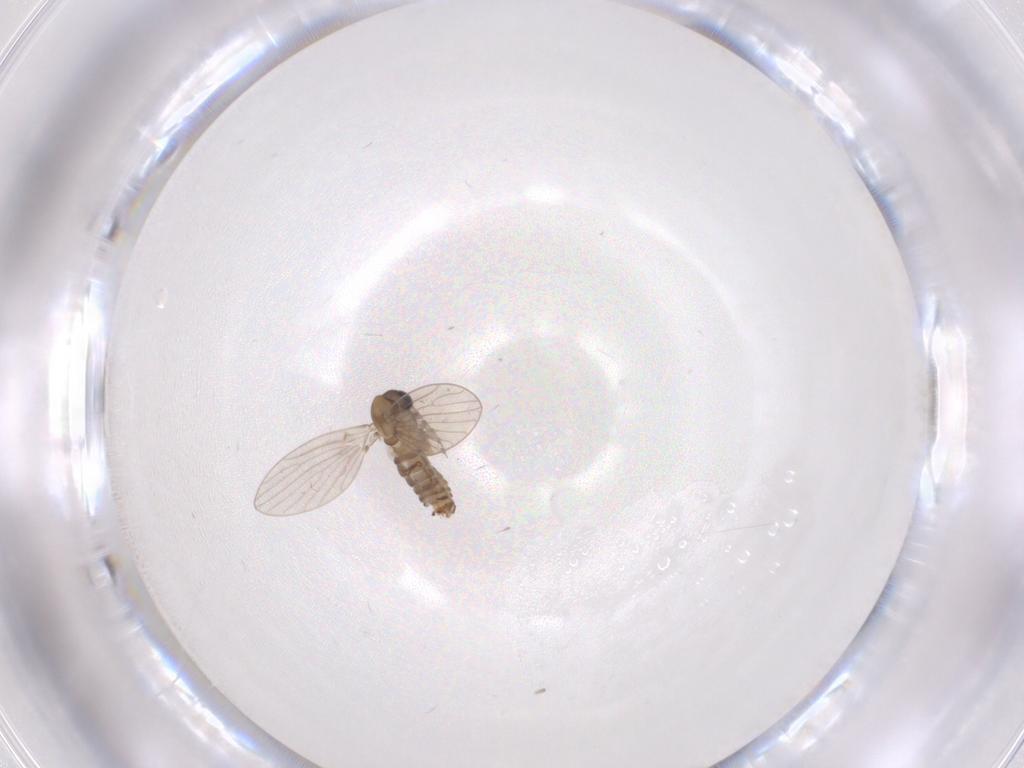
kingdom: Animalia
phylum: Arthropoda
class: Insecta
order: Diptera
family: Psychodidae
